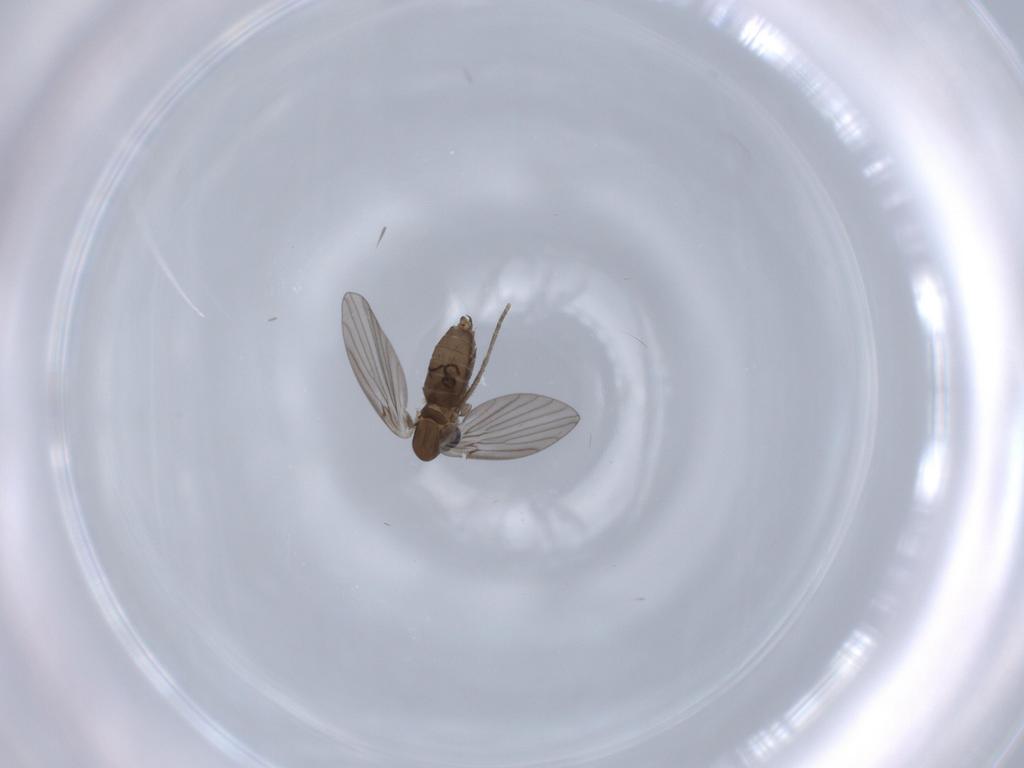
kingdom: Animalia
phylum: Arthropoda
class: Insecta
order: Diptera
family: Psychodidae
